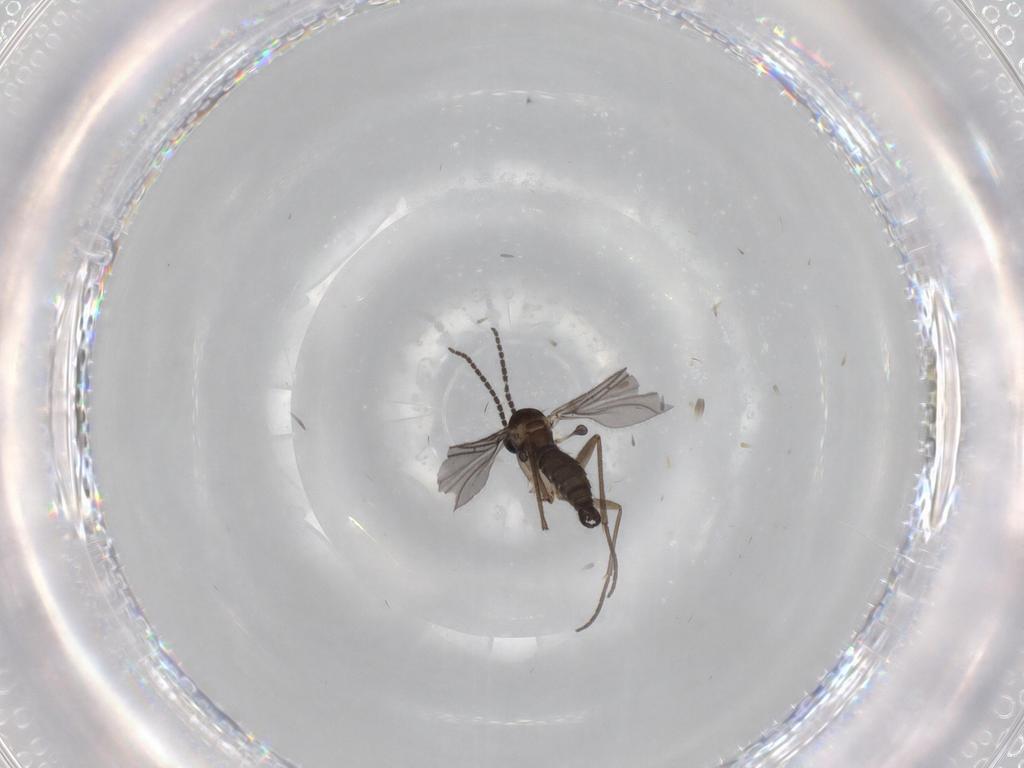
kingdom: Animalia
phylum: Arthropoda
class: Insecta
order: Diptera
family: Sciaridae
